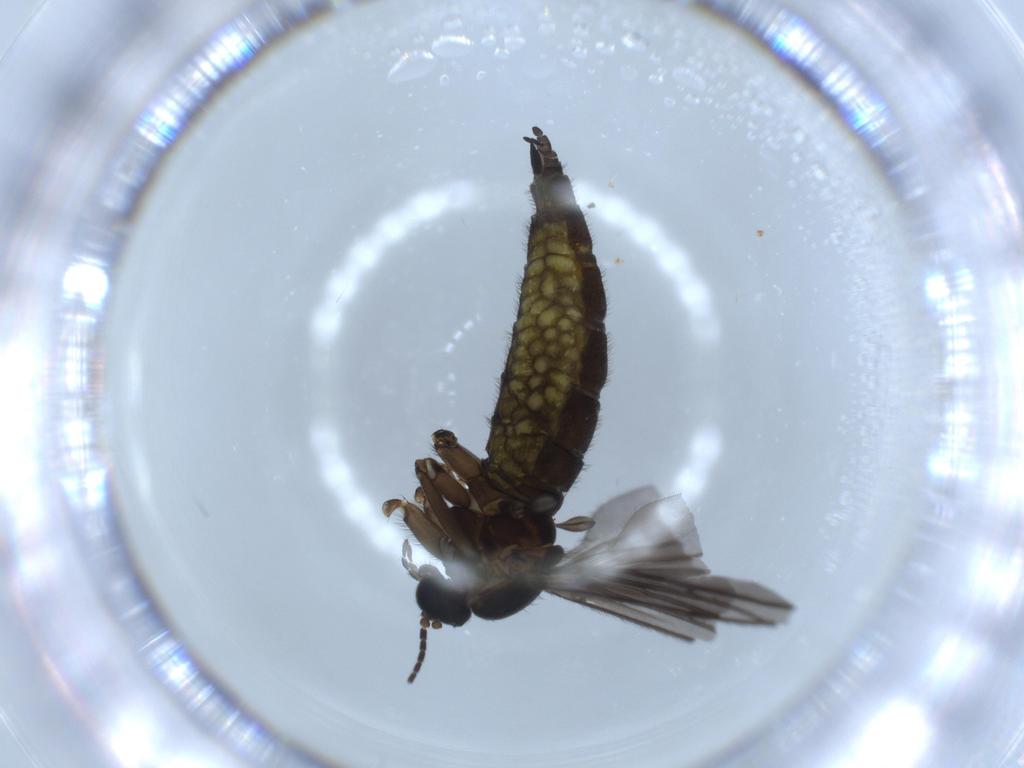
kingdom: Animalia
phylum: Arthropoda
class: Insecta
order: Diptera
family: Sciaridae
